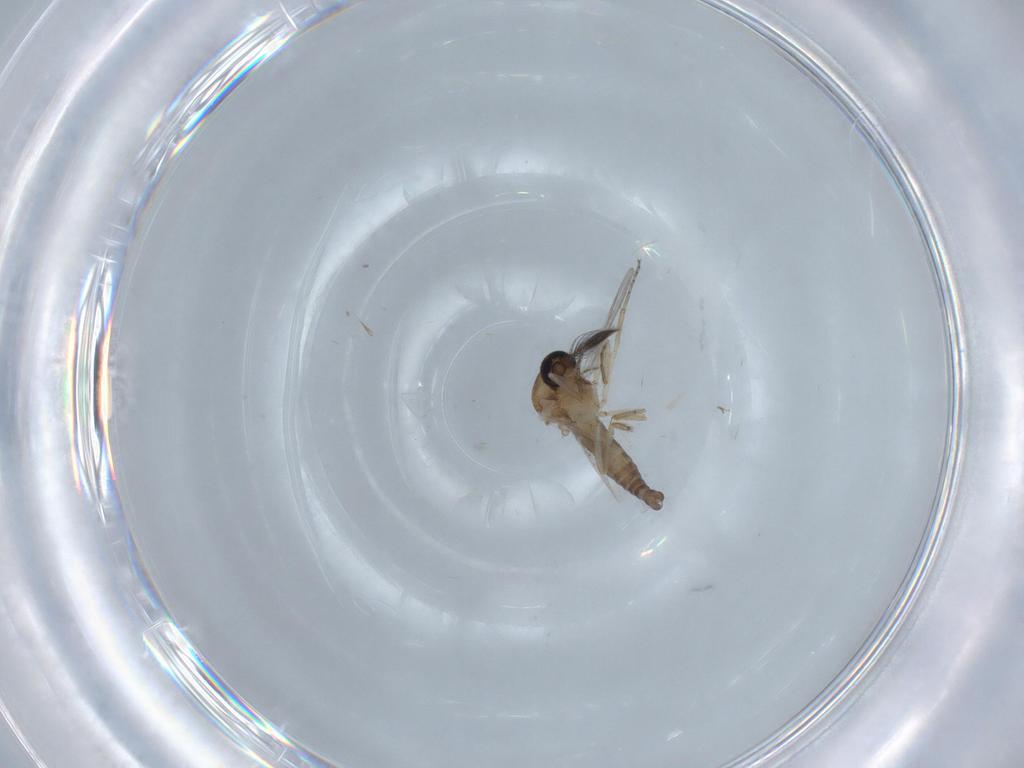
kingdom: Animalia
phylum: Arthropoda
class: Insecta
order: Diptera
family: Ceratopogonidae
